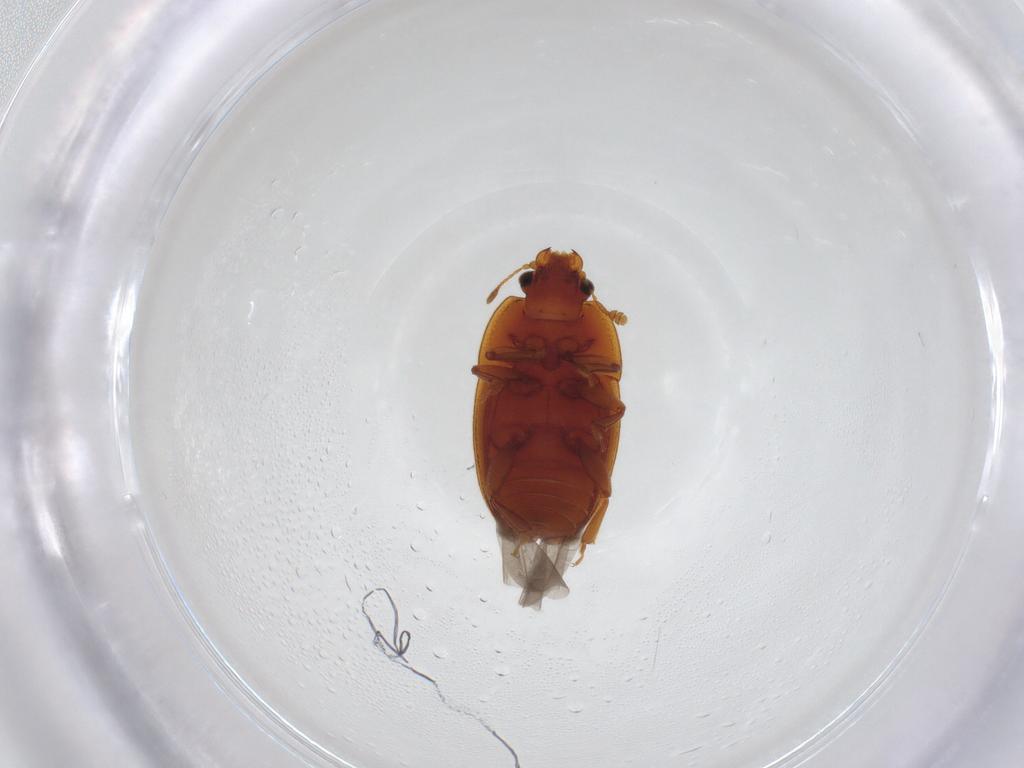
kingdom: Animalia
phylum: Arthropoda
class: Insecta
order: Coleoptera
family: Nitidulidae
